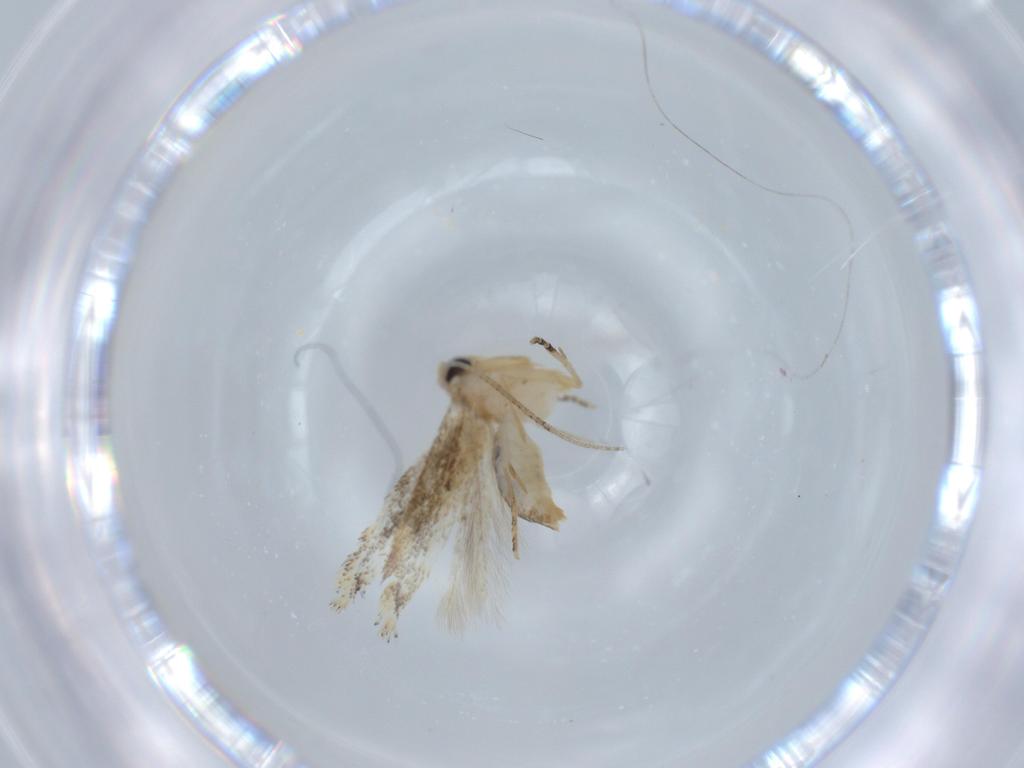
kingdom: Animalia
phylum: Arthropoda
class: Insecta
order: Lepidoptera
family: Bucculatricidae
